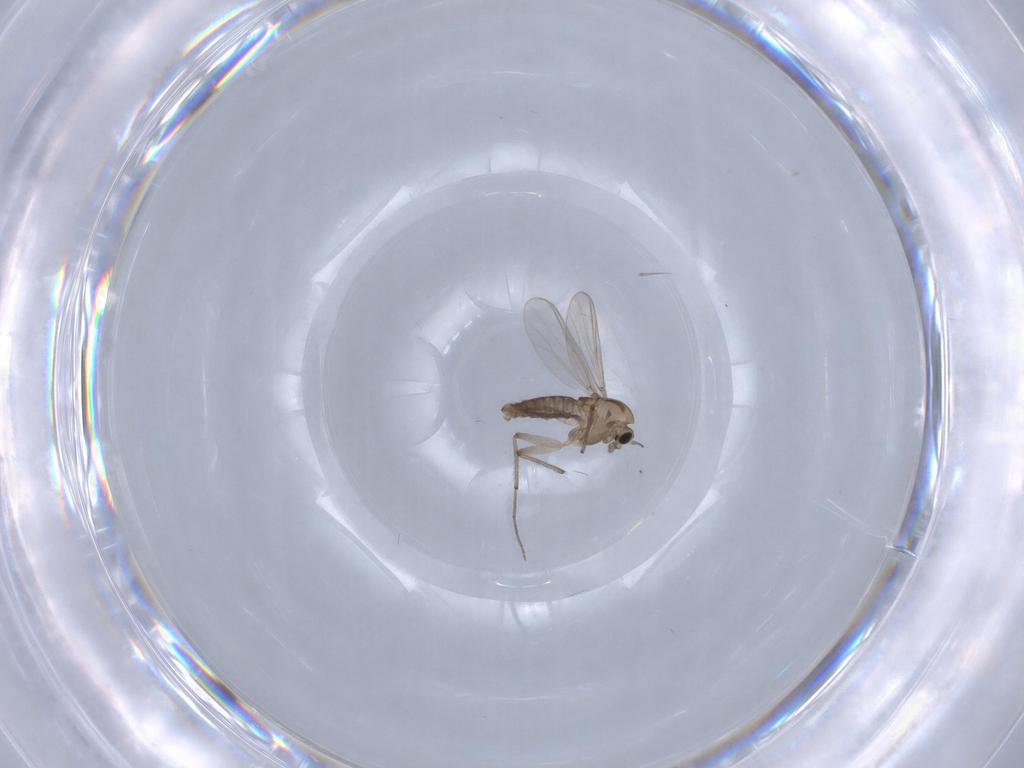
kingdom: Animalia
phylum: Arthropoda
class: Insecta
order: Diptera
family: Chironomidae
